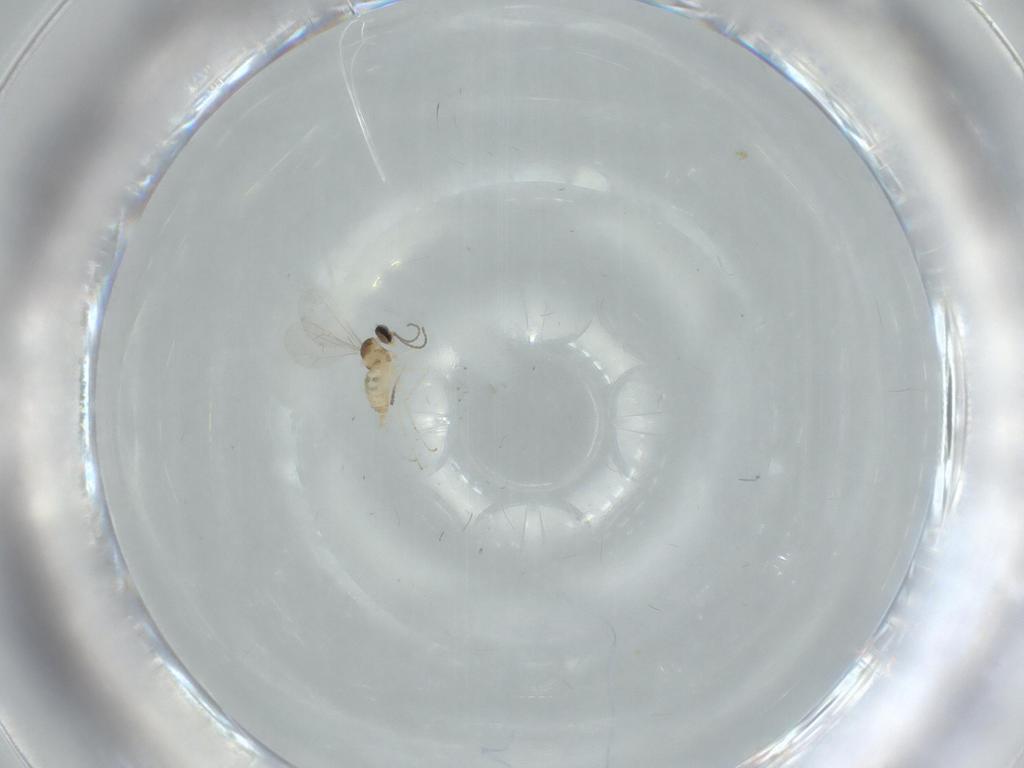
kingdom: Animalia
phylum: Arthropoda
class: Insecta
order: Diptera
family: Cecidomyiidae
